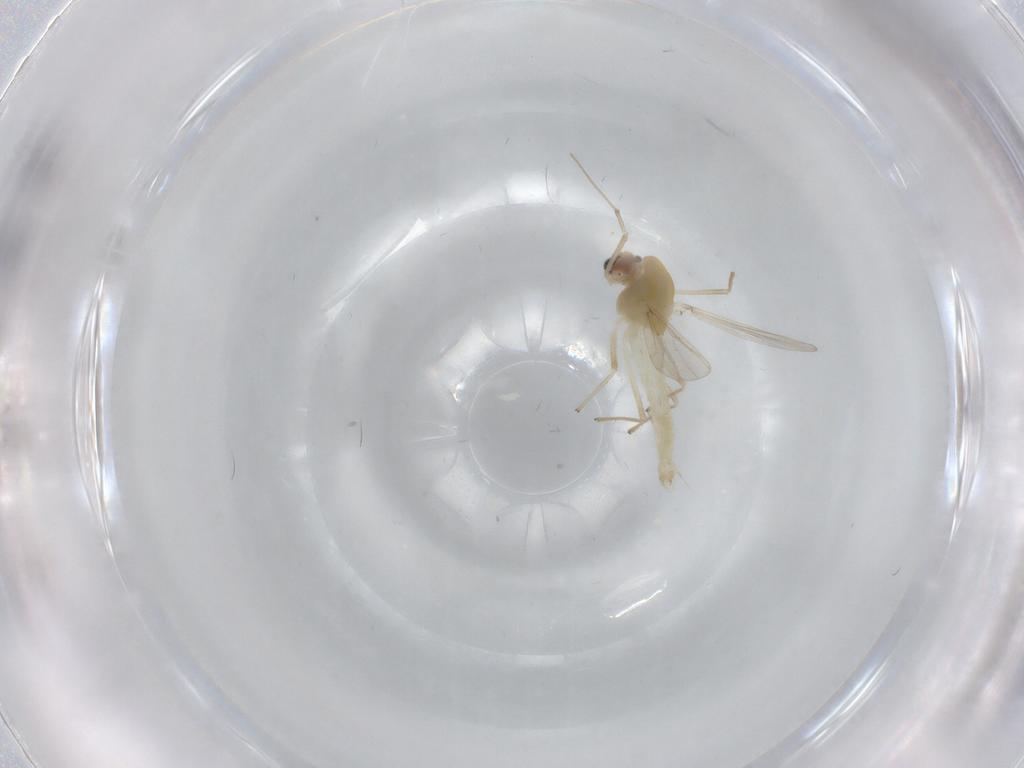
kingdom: Animalia
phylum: Arthropoda
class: Insecta
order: Diptera
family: Chironomidae
